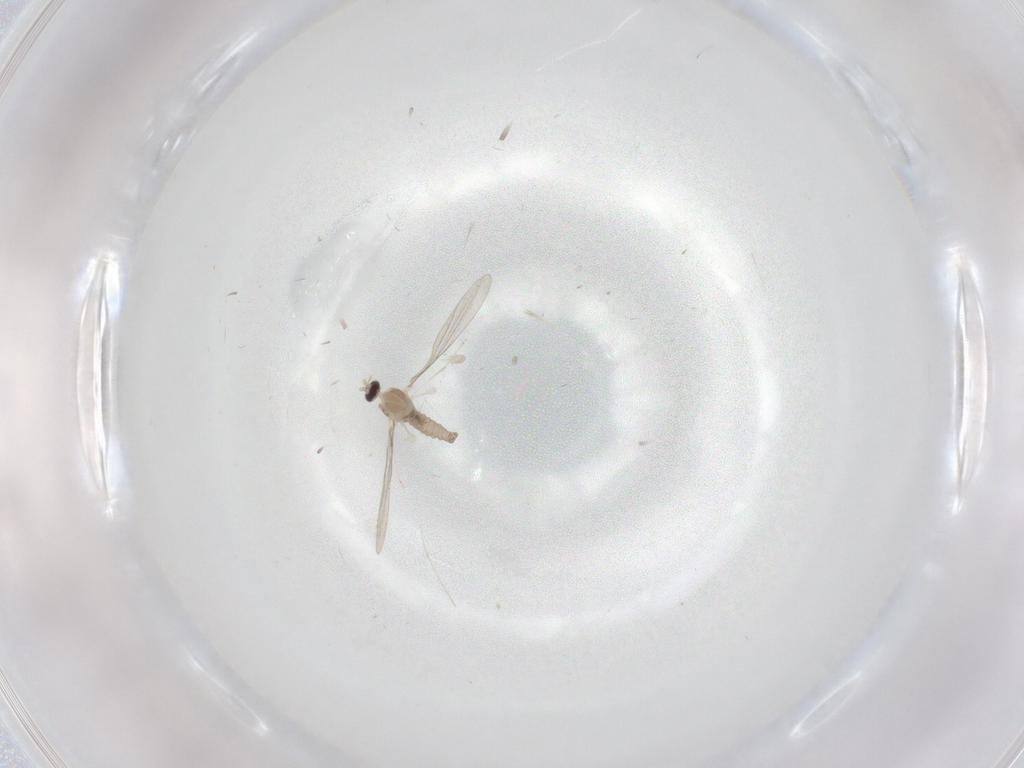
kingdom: Animalia
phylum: Arthropoda
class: Insecta
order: Diptera
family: Cecidomyiidae
